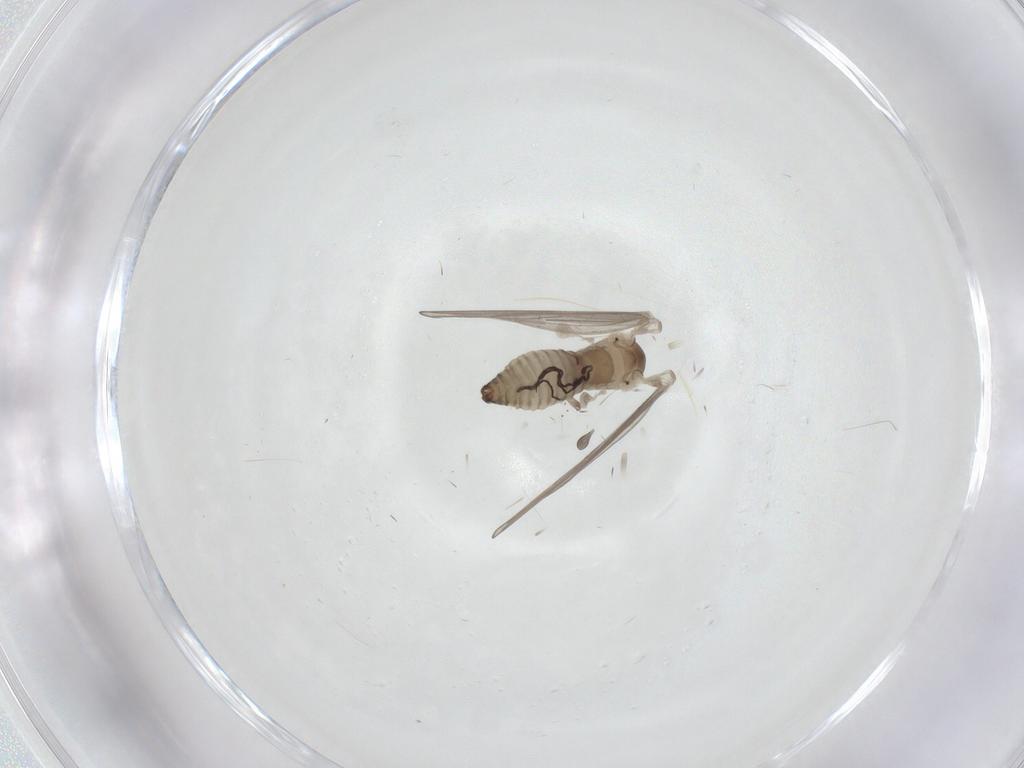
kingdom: Animalia
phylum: Arthropoda
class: Insecta
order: Diptera
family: Psychodidae
